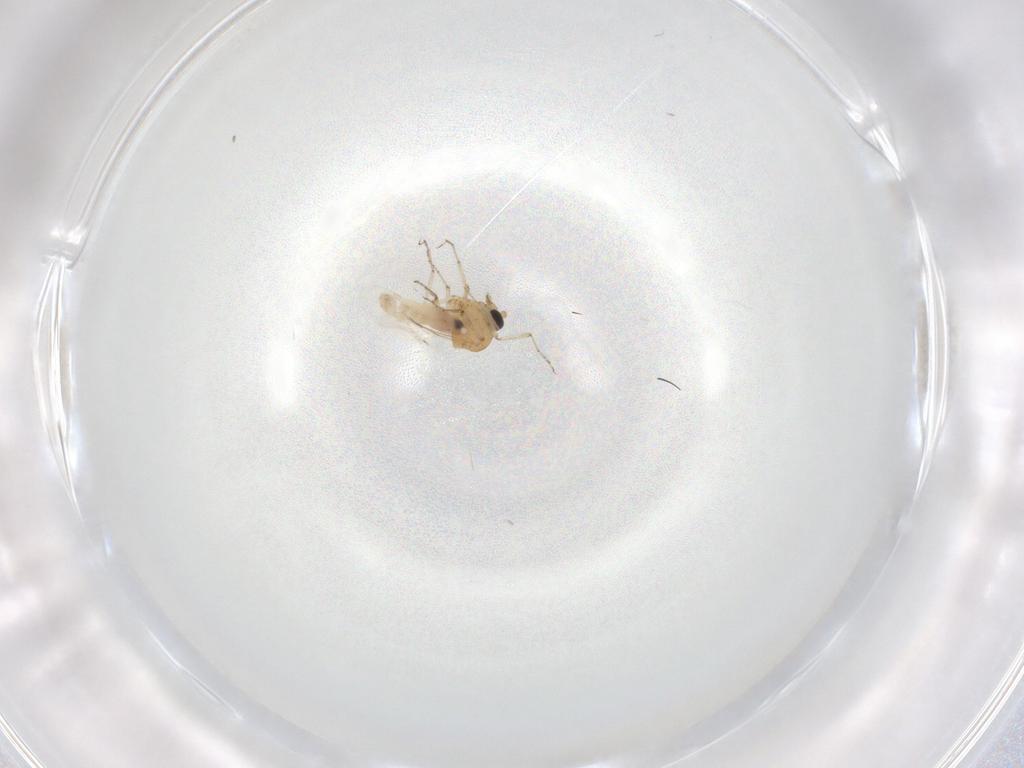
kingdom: Animalia
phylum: Arthropoda
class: Insecta
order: Diptera
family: Ceratopogonidae
